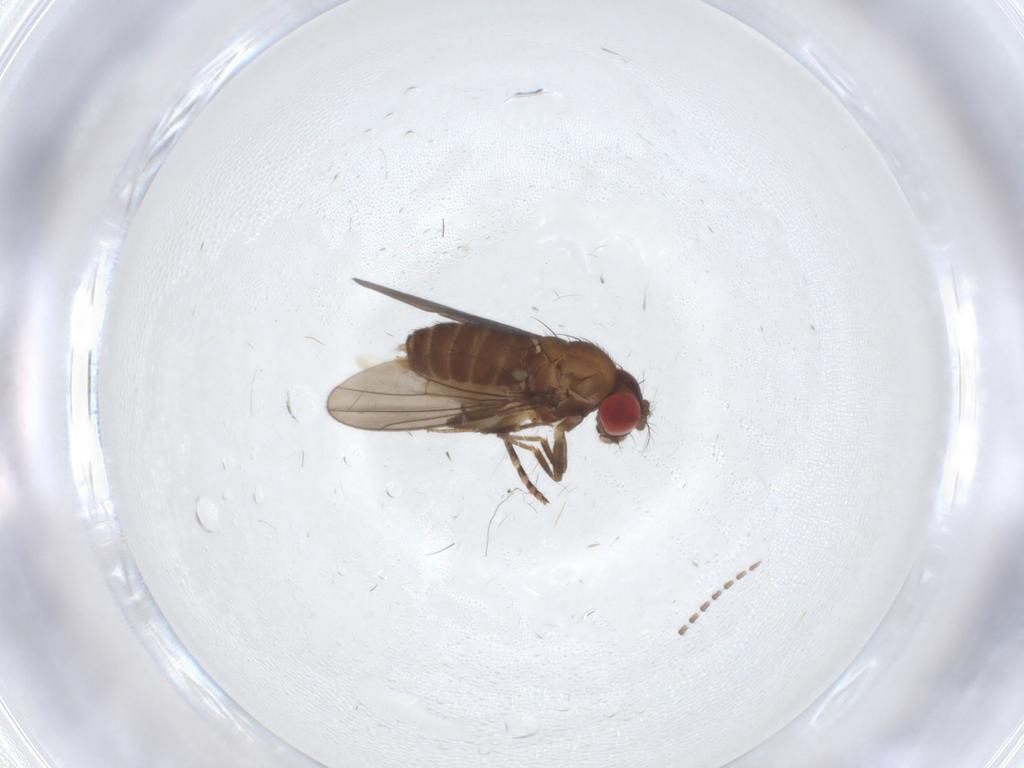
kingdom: Animalia
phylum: Arthropoda
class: Insecta
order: Diptera
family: Drosophilidae
